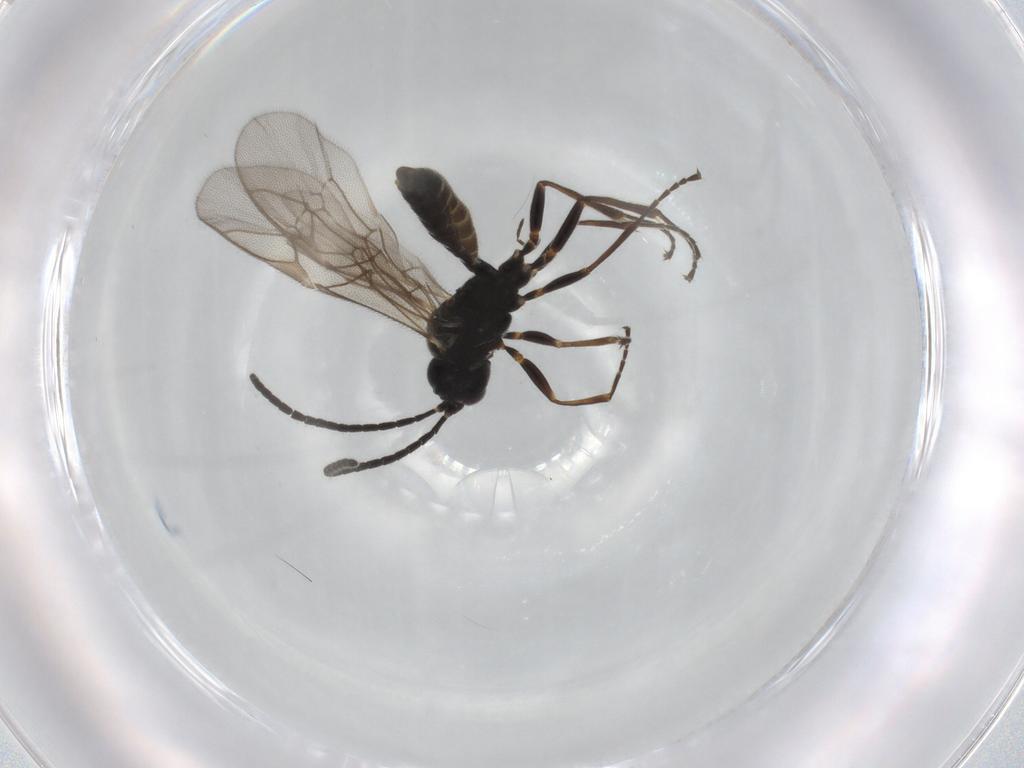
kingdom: Animalia
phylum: Arthropoda
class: Insecta
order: Hymenoptera
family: Ichneumonidae
